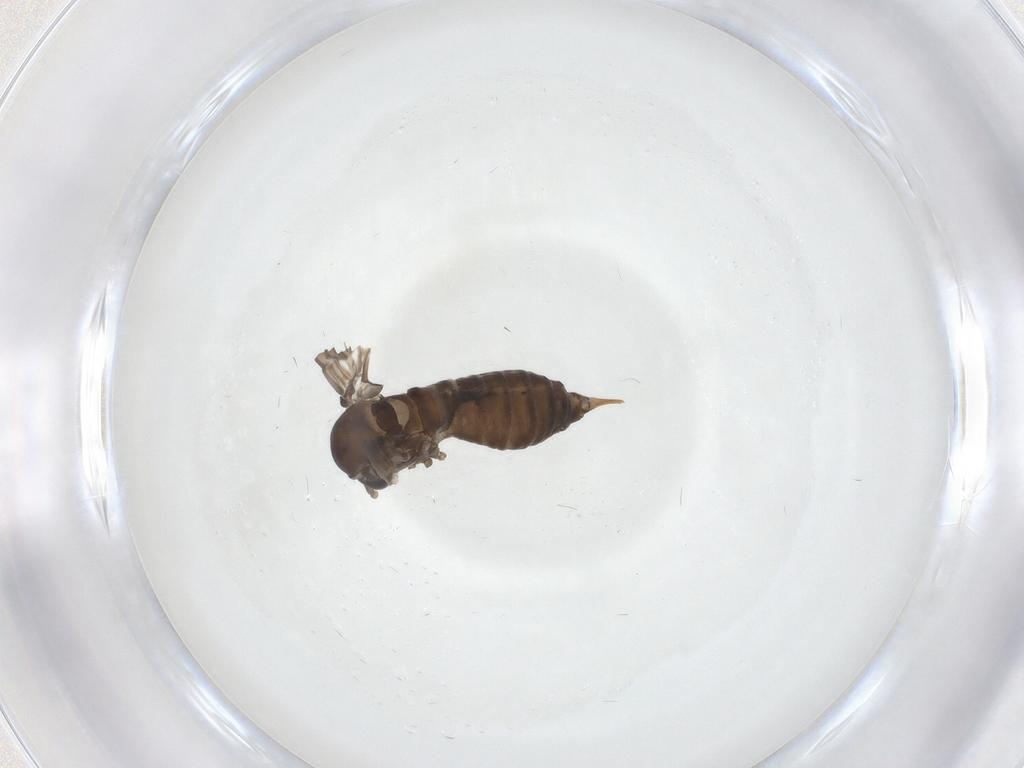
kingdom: Animalia
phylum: Arthropoda
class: Insecta
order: Diptera
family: Psychodidae
